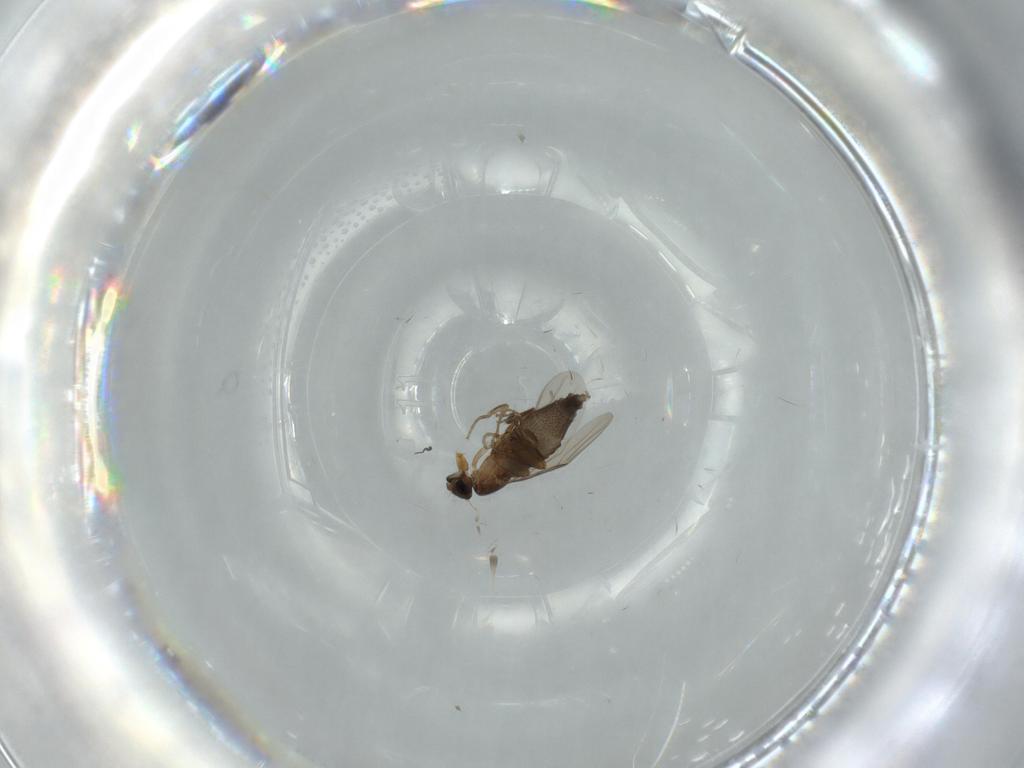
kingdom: Animalia
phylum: Arthropoda
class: Insecta
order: Diptera
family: Phoridae
